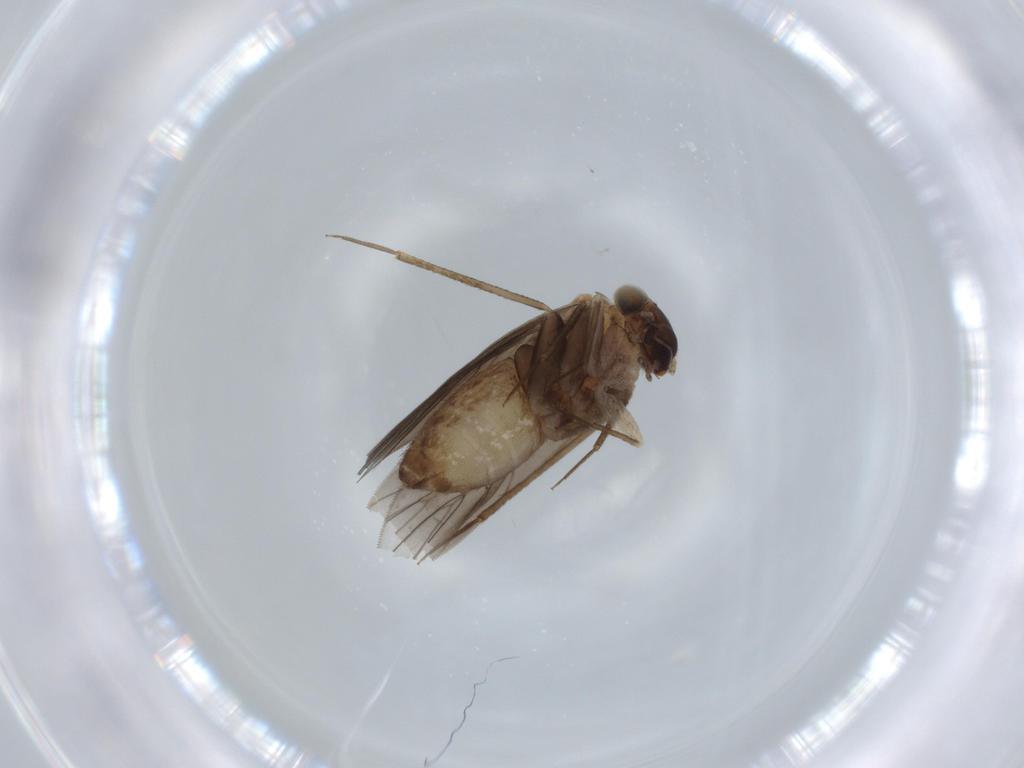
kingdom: Animalia
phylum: Arthropoda
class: Insecta
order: Psocodea
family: Lepidopsocidae
